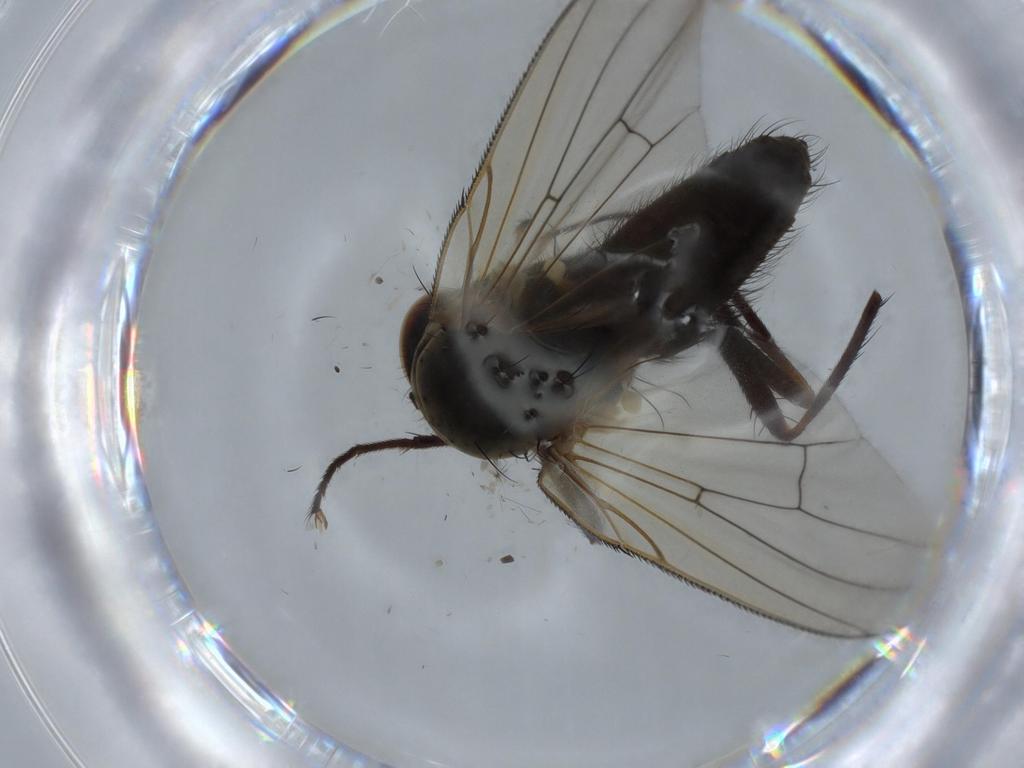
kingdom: Animalia
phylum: Arthropoda
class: Insecta
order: Diptera
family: Anthomyiidae
